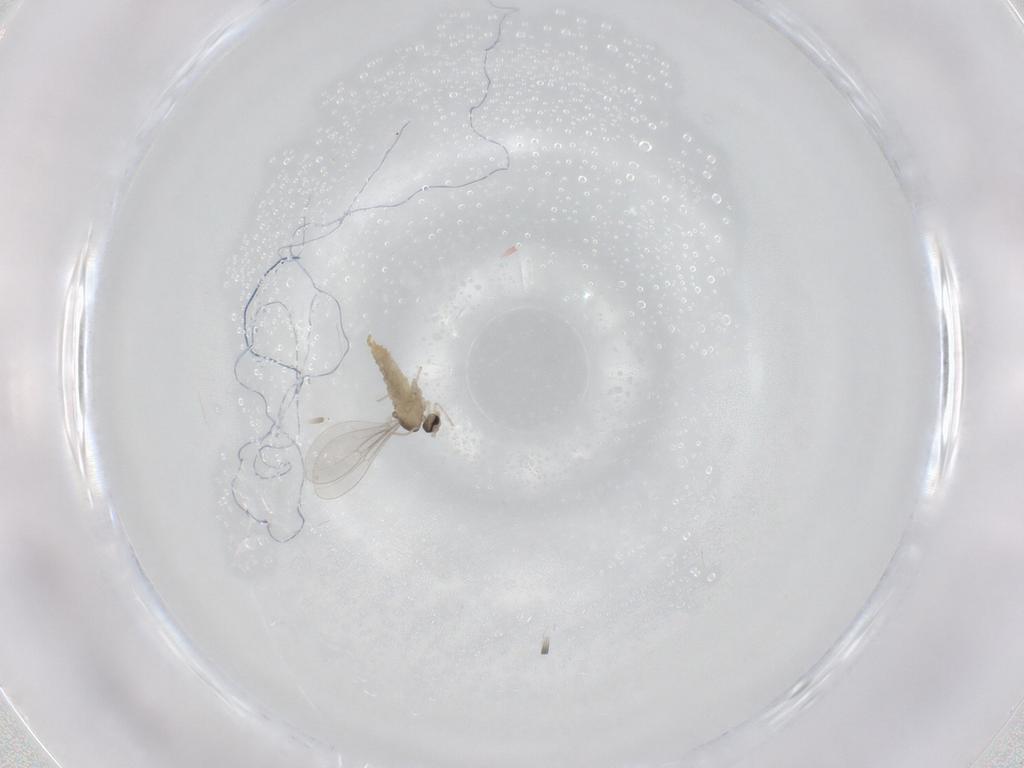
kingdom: Animalia
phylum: Arthropoda
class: Insecta
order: Diptera
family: Cecidomyiidae
